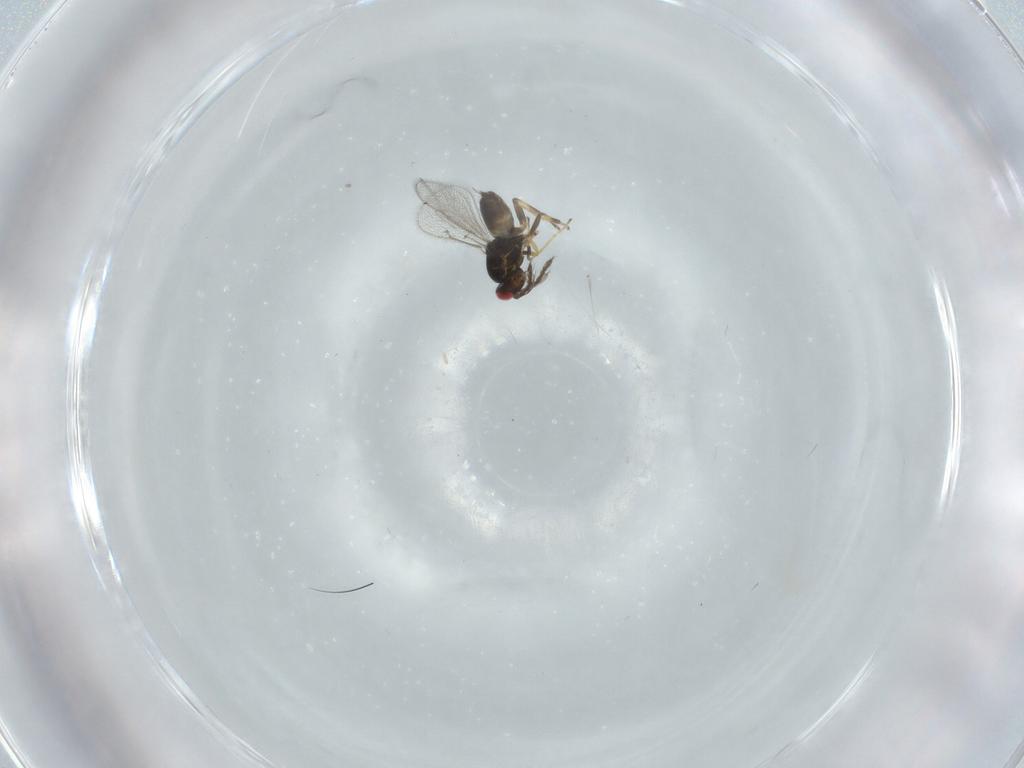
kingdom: Animalia
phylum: Arthropoda
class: Insecta
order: Hymenoptera
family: Eulophidae
